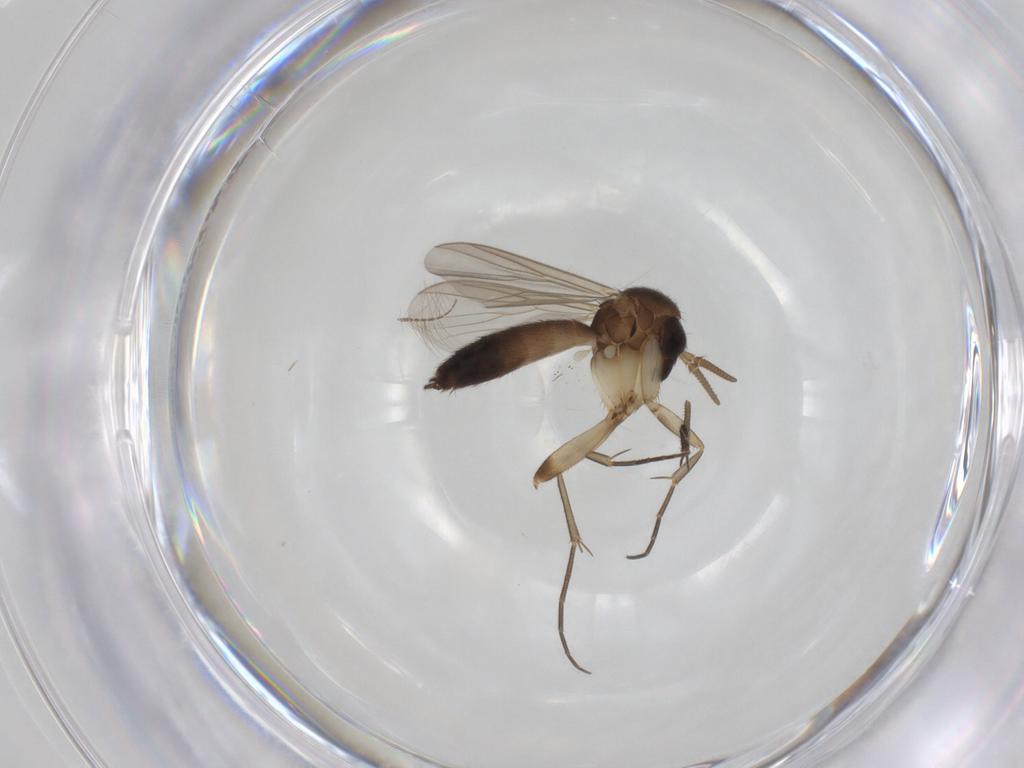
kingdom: Animalia
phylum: Arthropoda
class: Insecta
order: Diptera
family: Mycetophilidae
